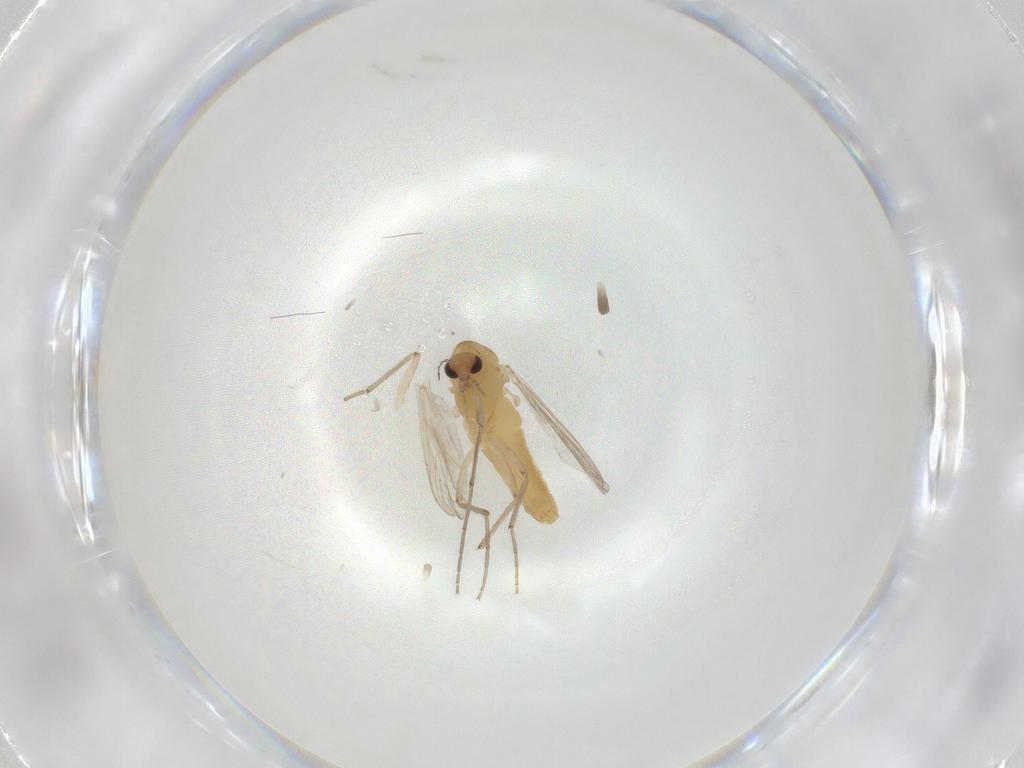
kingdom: Animalia
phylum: Arthropoda
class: Insecta
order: Diptera
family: Chironomidae
